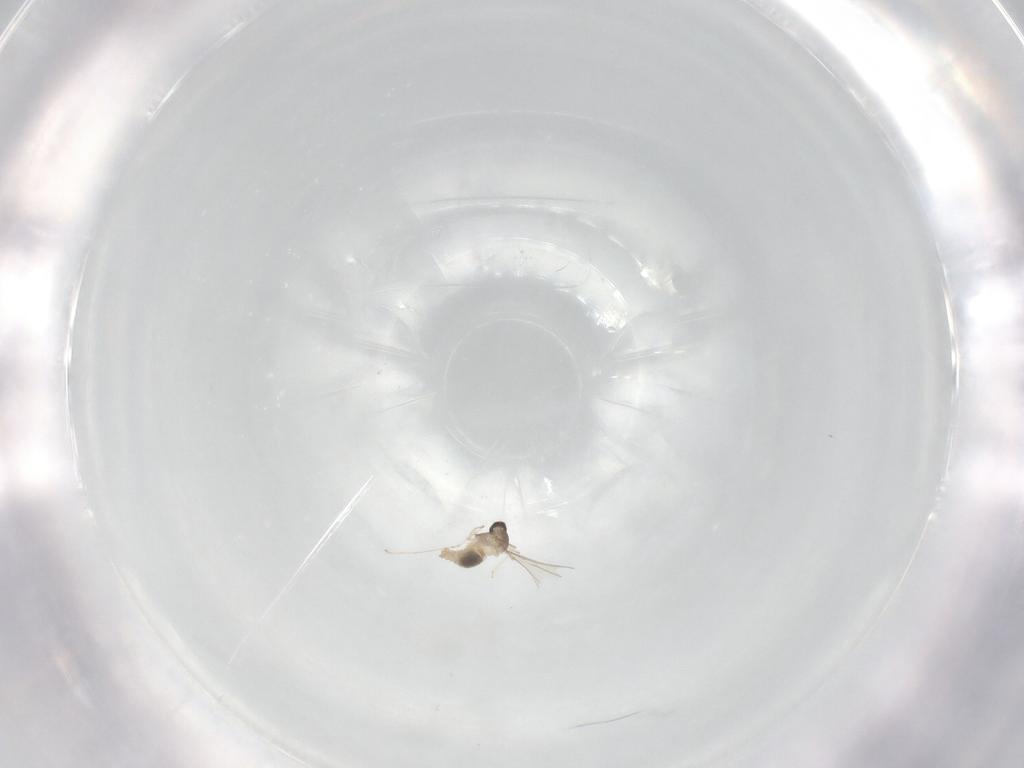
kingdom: Animalia
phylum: Arthropoda
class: Insecta
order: Diptera
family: Cecidomyiidae
